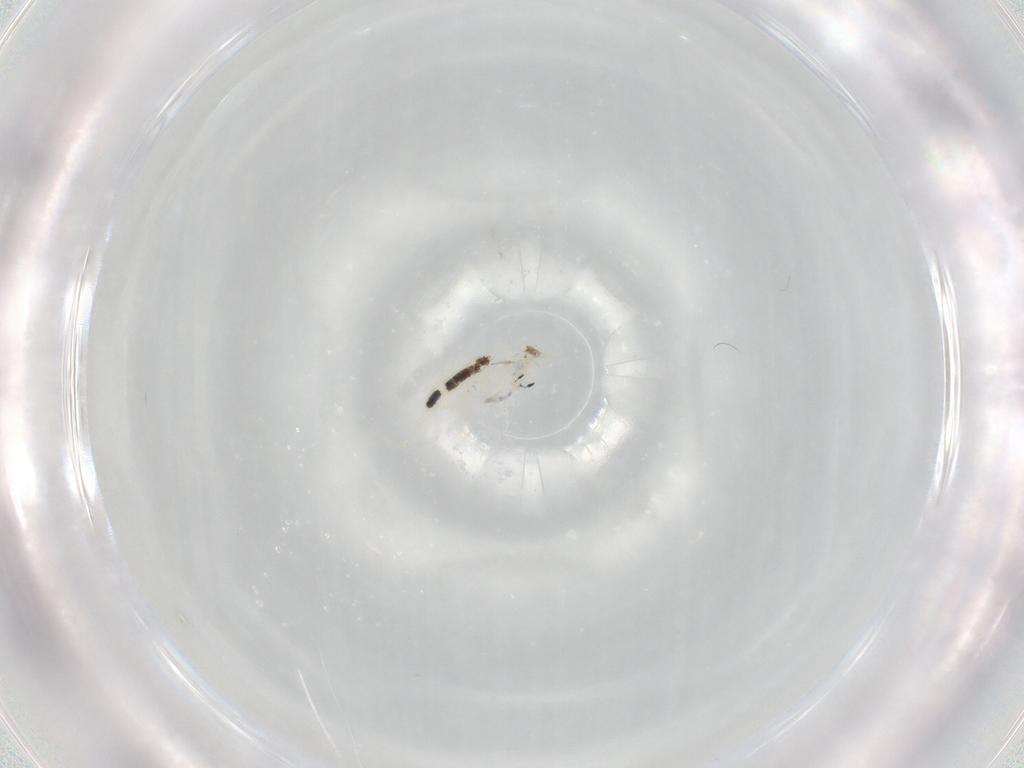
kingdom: Animalia
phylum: Arthropoda
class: Collembola
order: Entomobryomorpha
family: Entomobryidae
